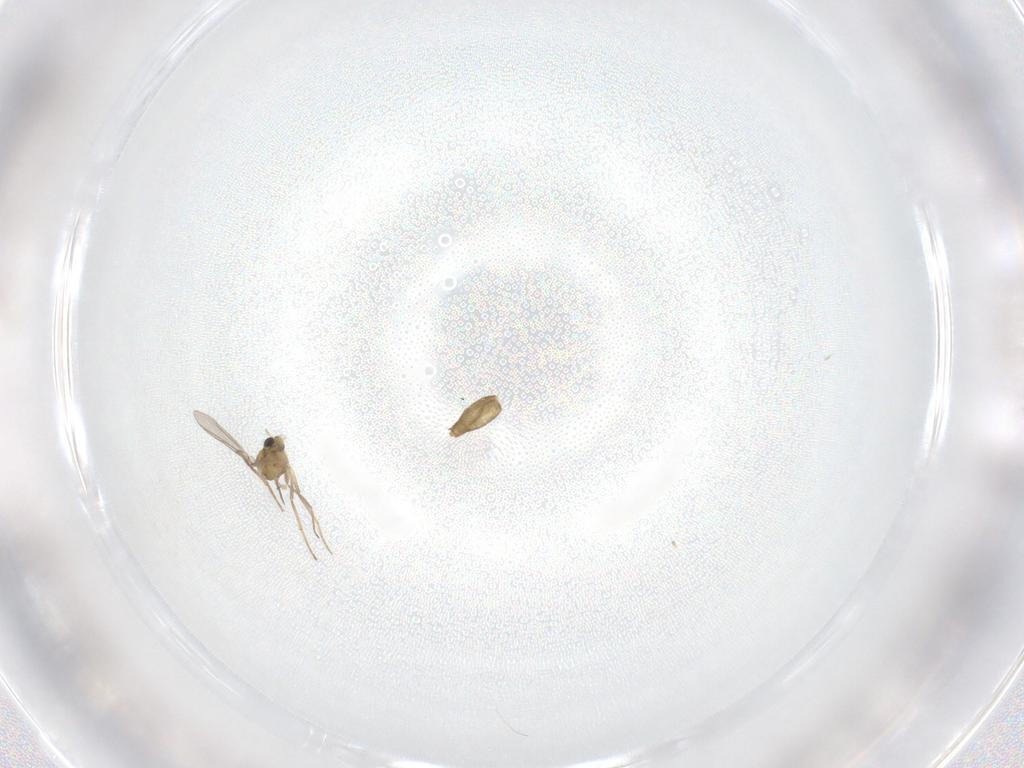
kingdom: Animalia
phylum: Arthropoda
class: Insecta
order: Diptera
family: Chironomidae
